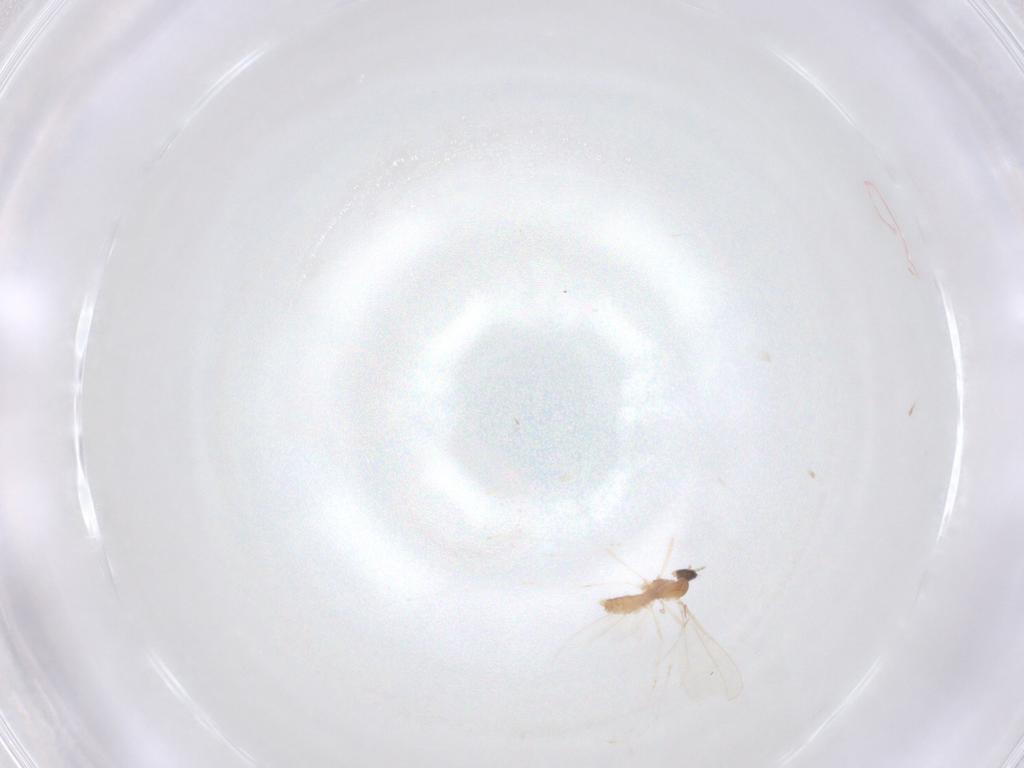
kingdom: Animalia
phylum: Arthropoda
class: Insecta
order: Diptera
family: Ceratopogonidae
